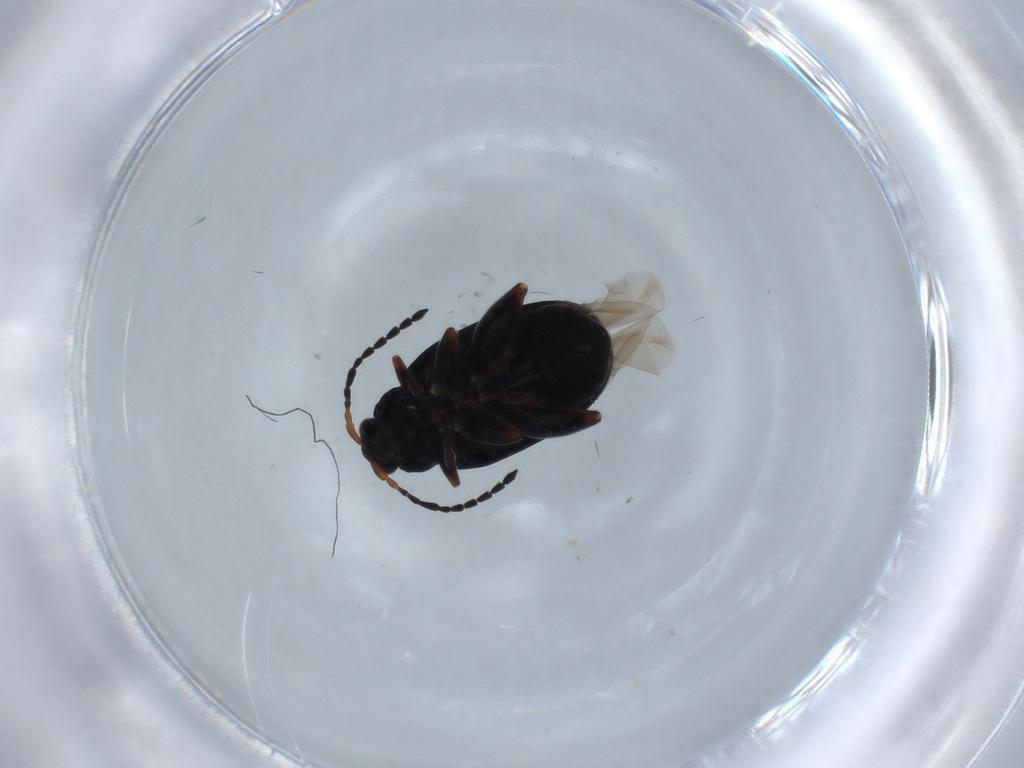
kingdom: Animalia
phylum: Arthropoda
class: Insecta
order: Coleoptera
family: Chrysomelidae
